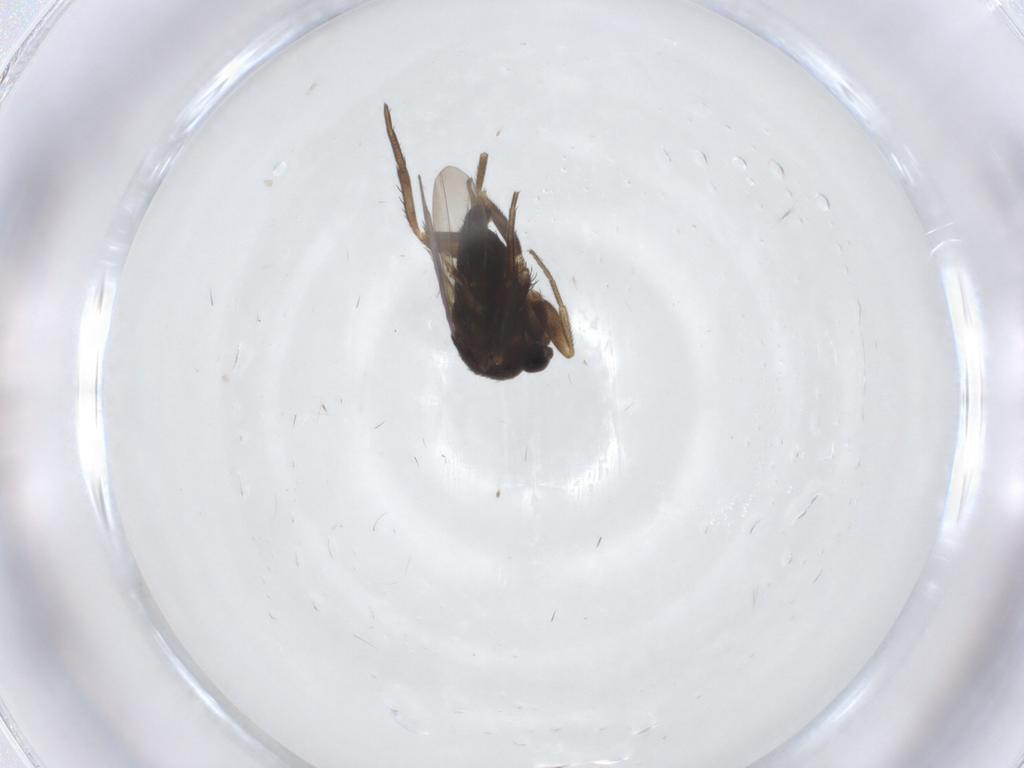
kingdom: Animalia
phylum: Arthropoda
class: Insecta
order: Diptera
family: Phoridae
